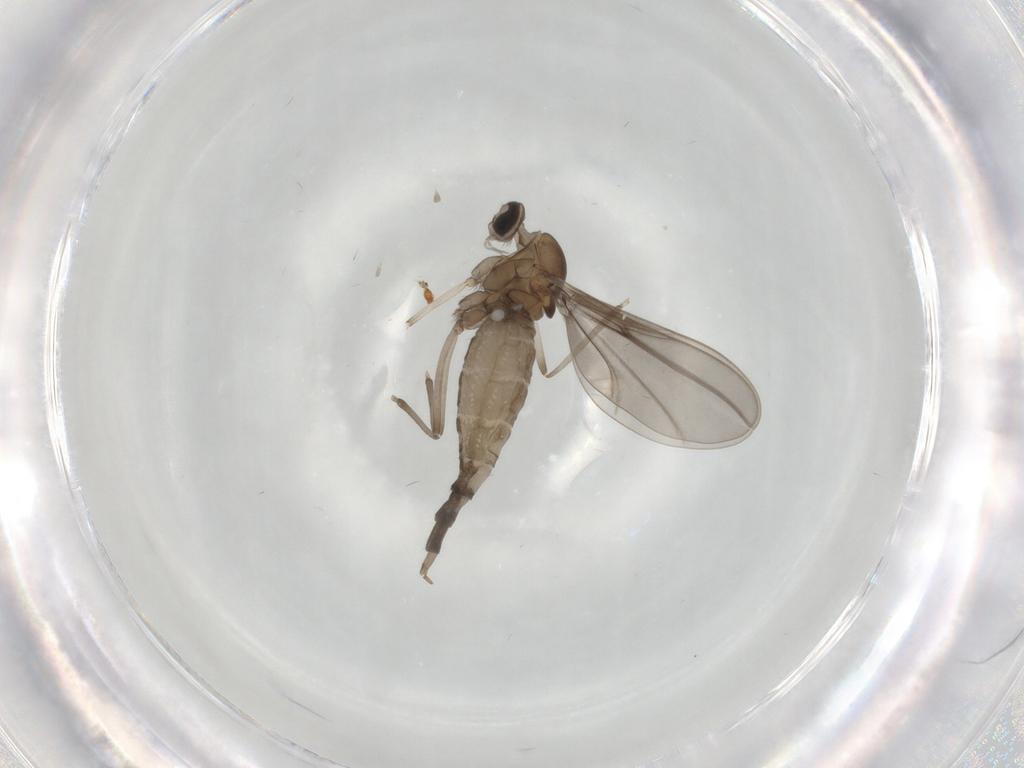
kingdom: Animalia
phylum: Arthropoda
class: Insecta
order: Diptera
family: Cecidomyiidae
